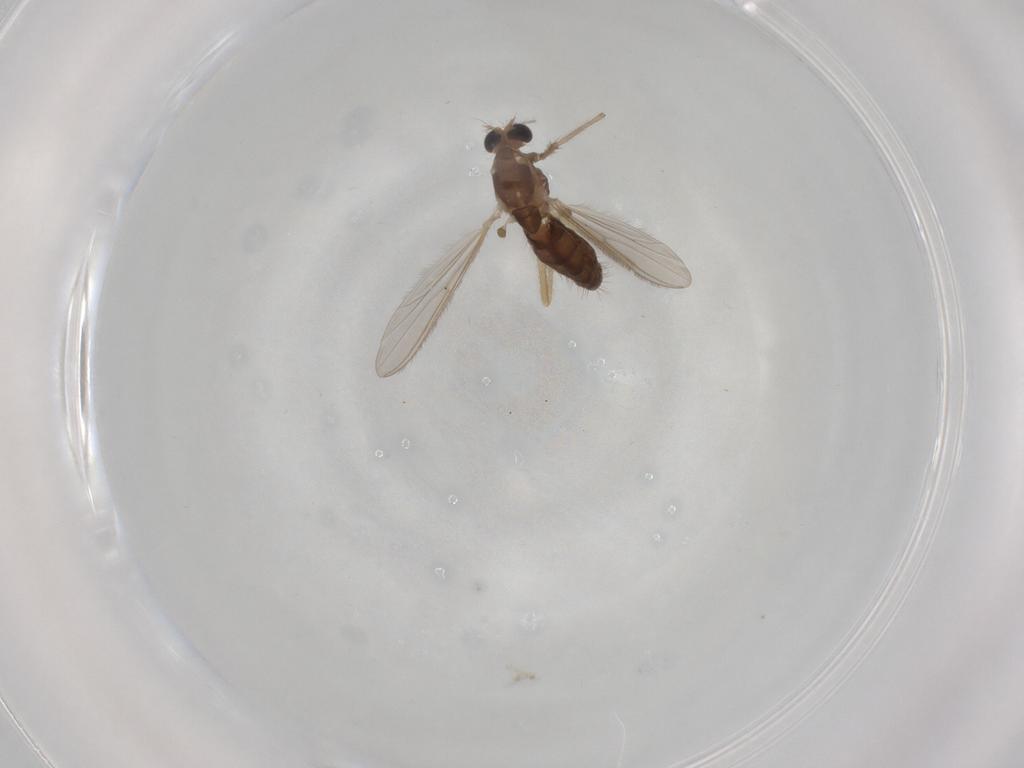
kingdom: Animalia
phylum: Arthropoda
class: Insecta
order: Diptera
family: Chironomidae
